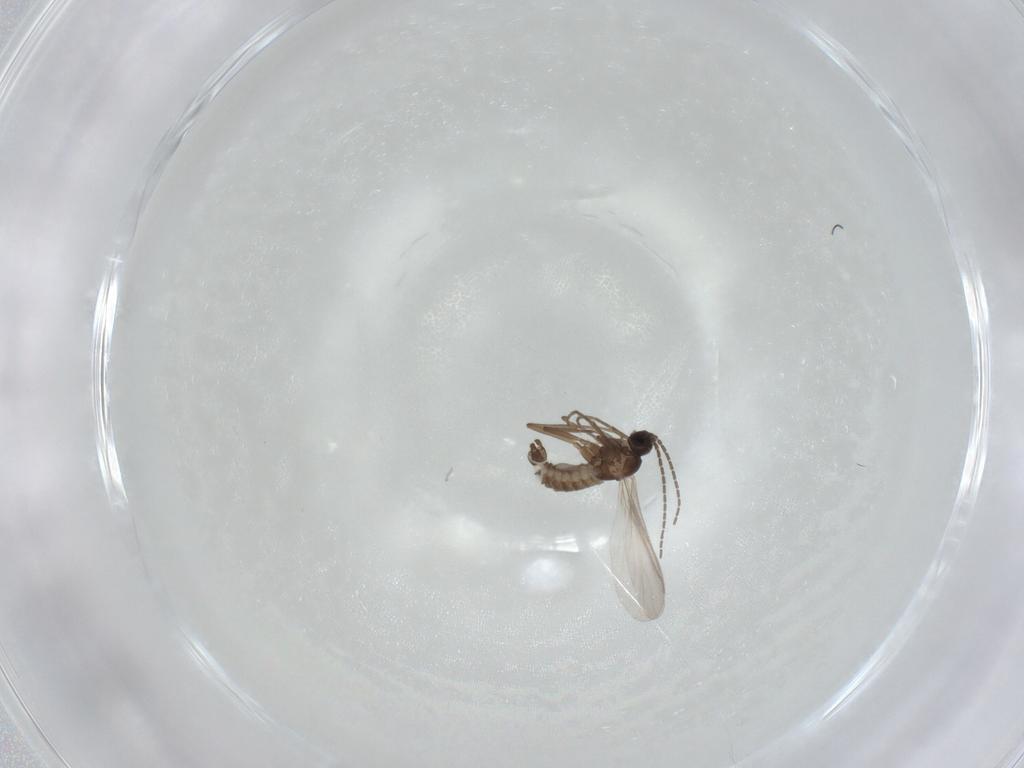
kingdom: Animalia
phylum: Arthropoda
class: Insecta
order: Diptera
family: Sciaridae
